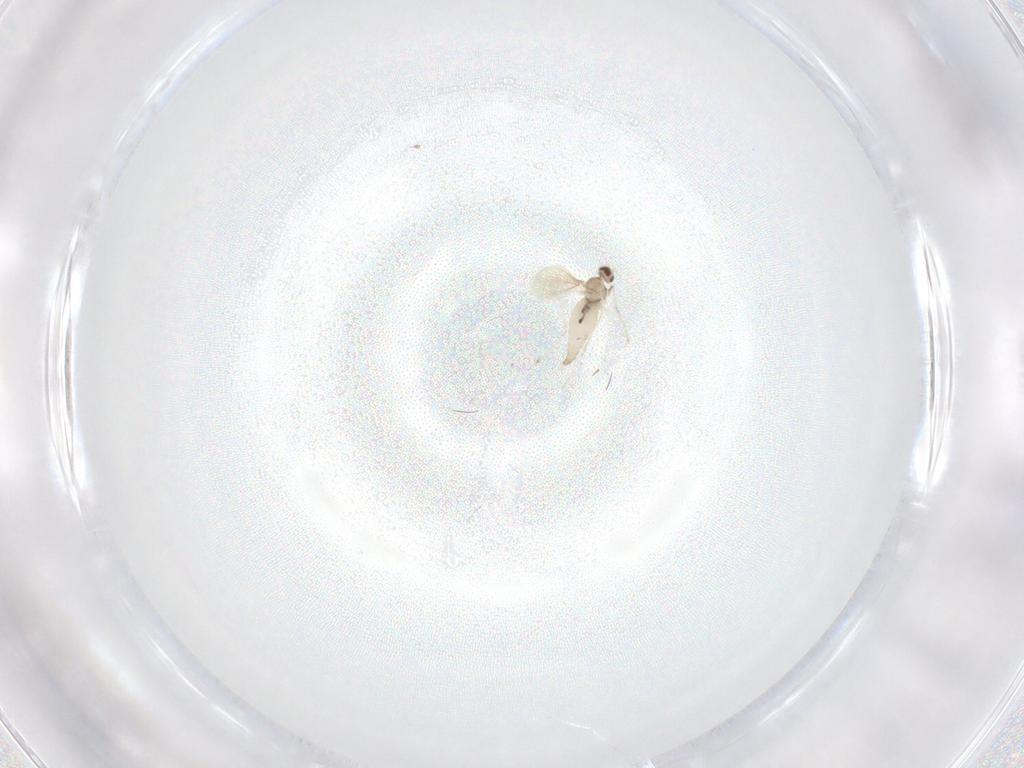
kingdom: Animalia
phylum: Arthropoda
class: Insecta
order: Diptera
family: Cecidomyiidae
